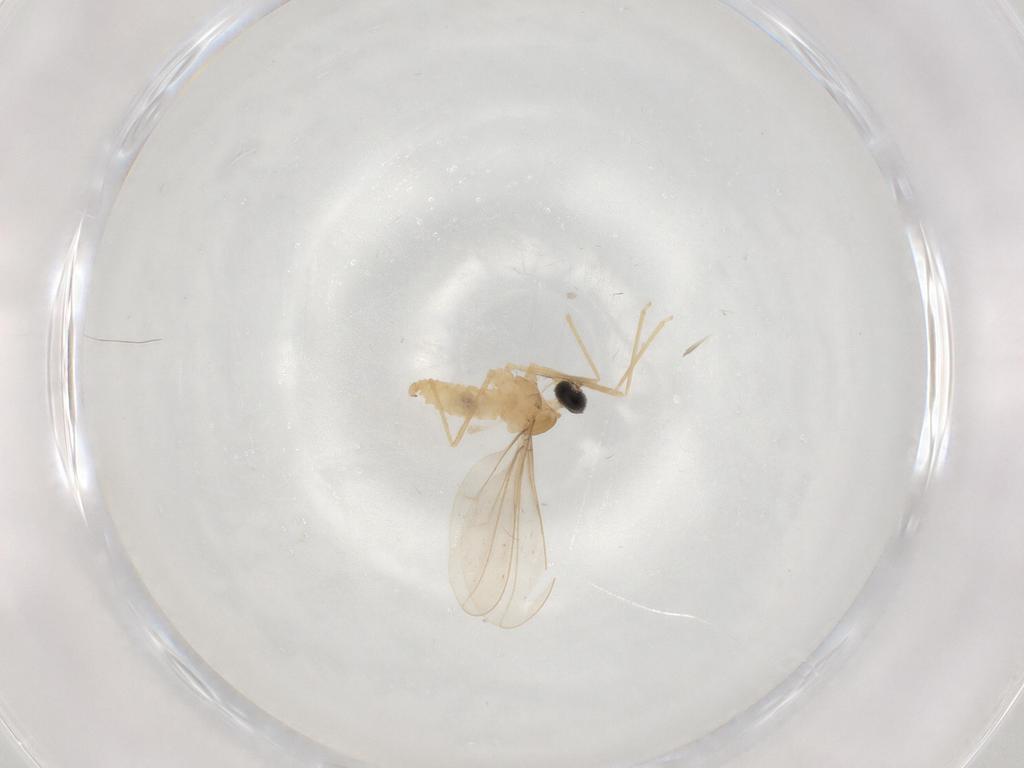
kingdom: Animalia
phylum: Arthropoda
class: Insecta
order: Diptera
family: Cecidomyiidae
